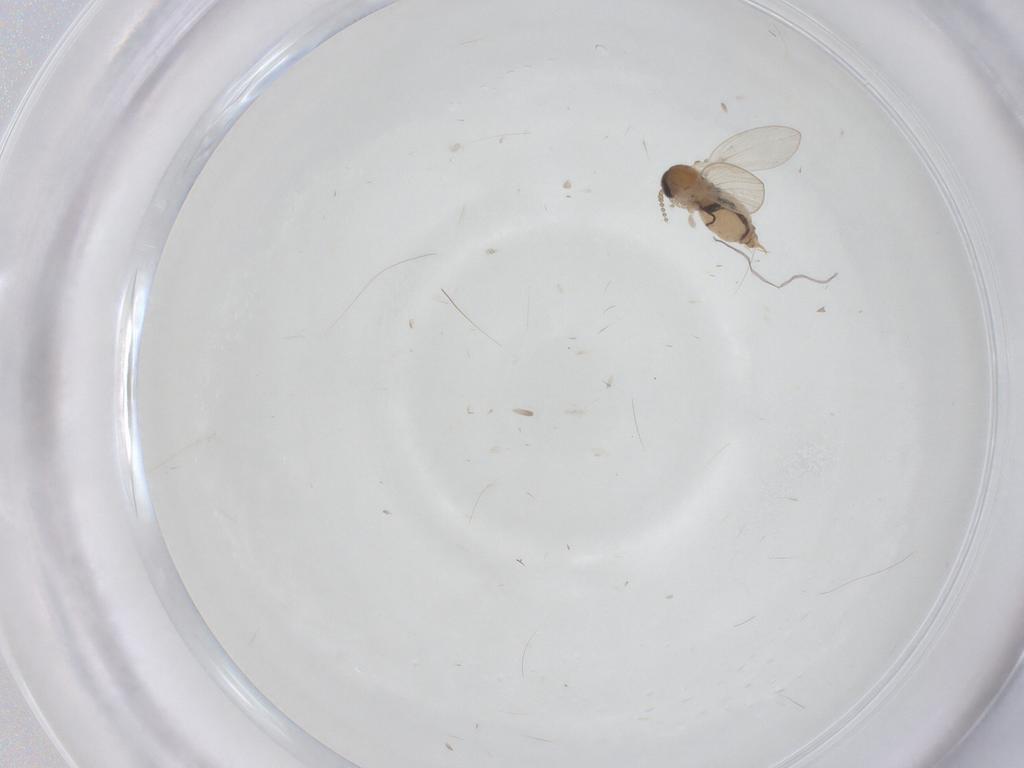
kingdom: Animalia
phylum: Arthropoda
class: Insecta
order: Diptera
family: Psychodidae
